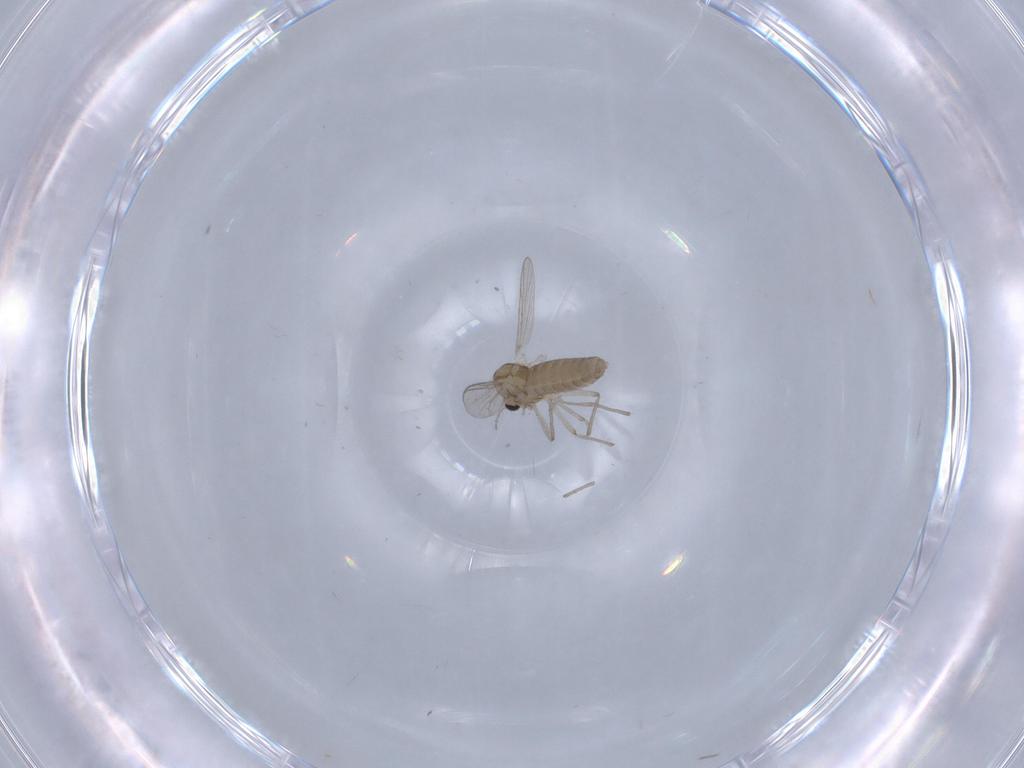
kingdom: Animalia
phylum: Arthropoda
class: Insecta
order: Diptera
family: Chironomidae
